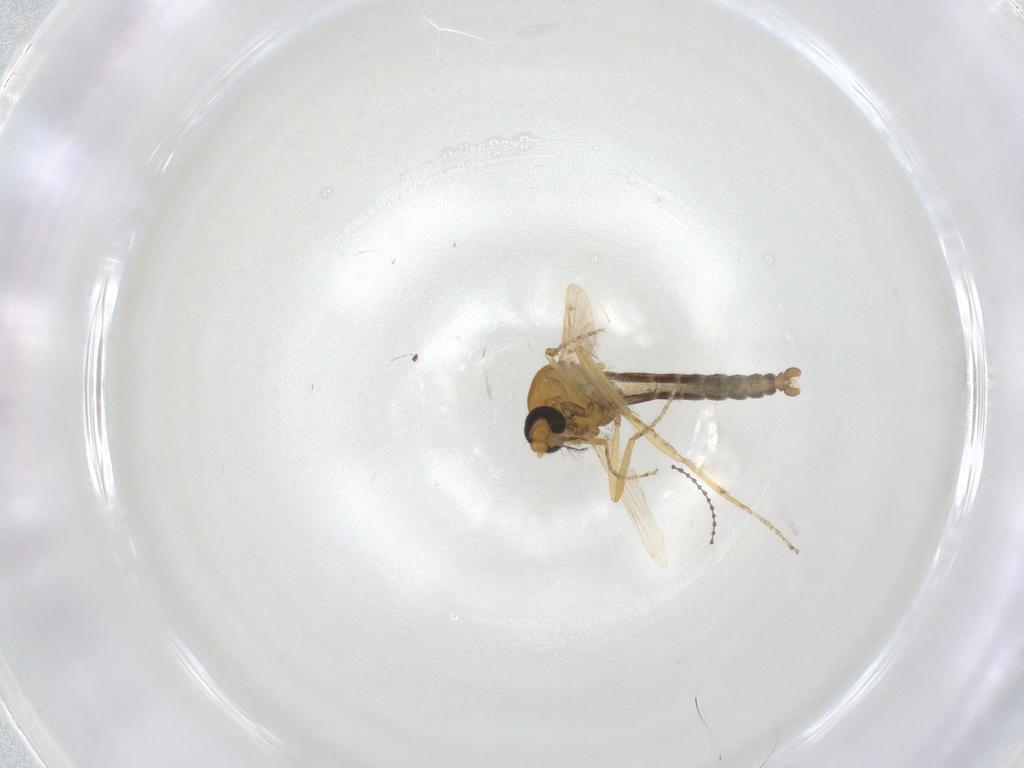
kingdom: Animalia
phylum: Arthropoda
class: Insecta
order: Diptera
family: Ceratopogonidae
